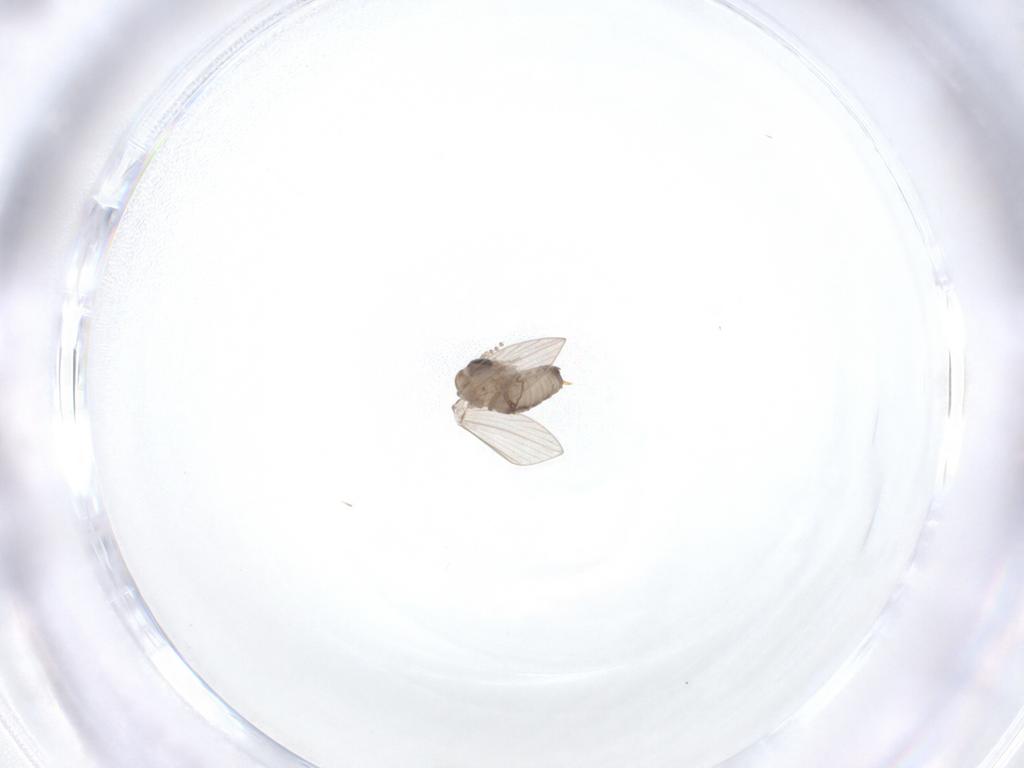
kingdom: Animalia
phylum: Arthropoda
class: Insecta
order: Diptera
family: Psychodidae
